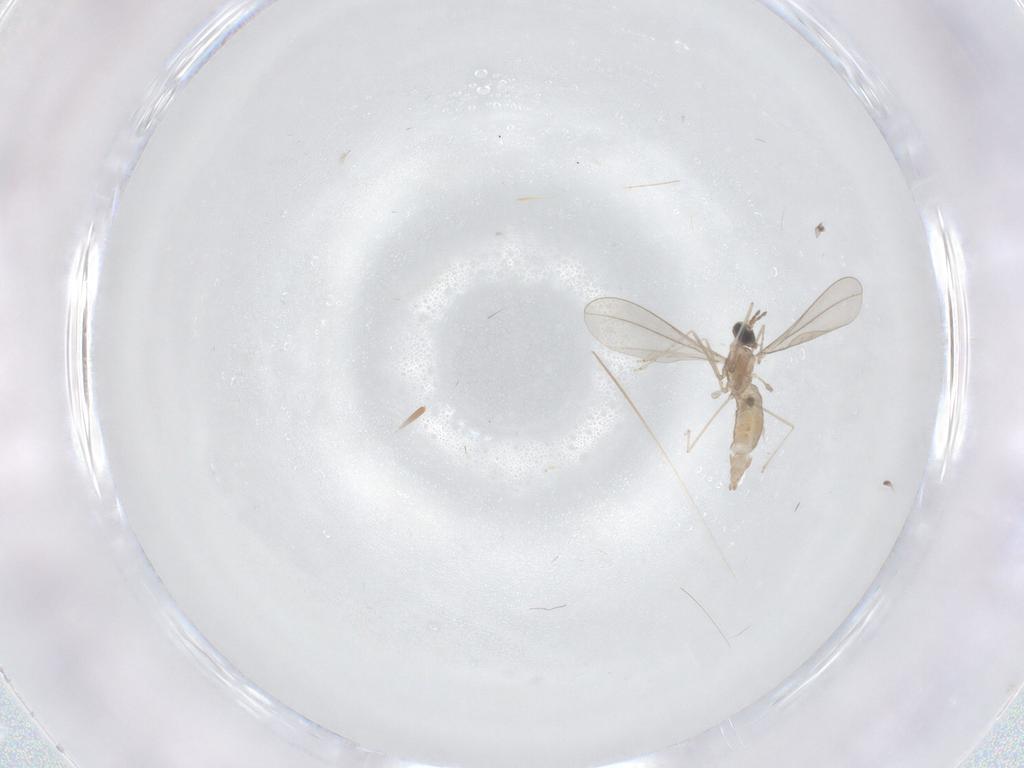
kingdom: Animalia
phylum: Arthropoda
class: Insecta
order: Diptera
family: Cecidomyiidae
